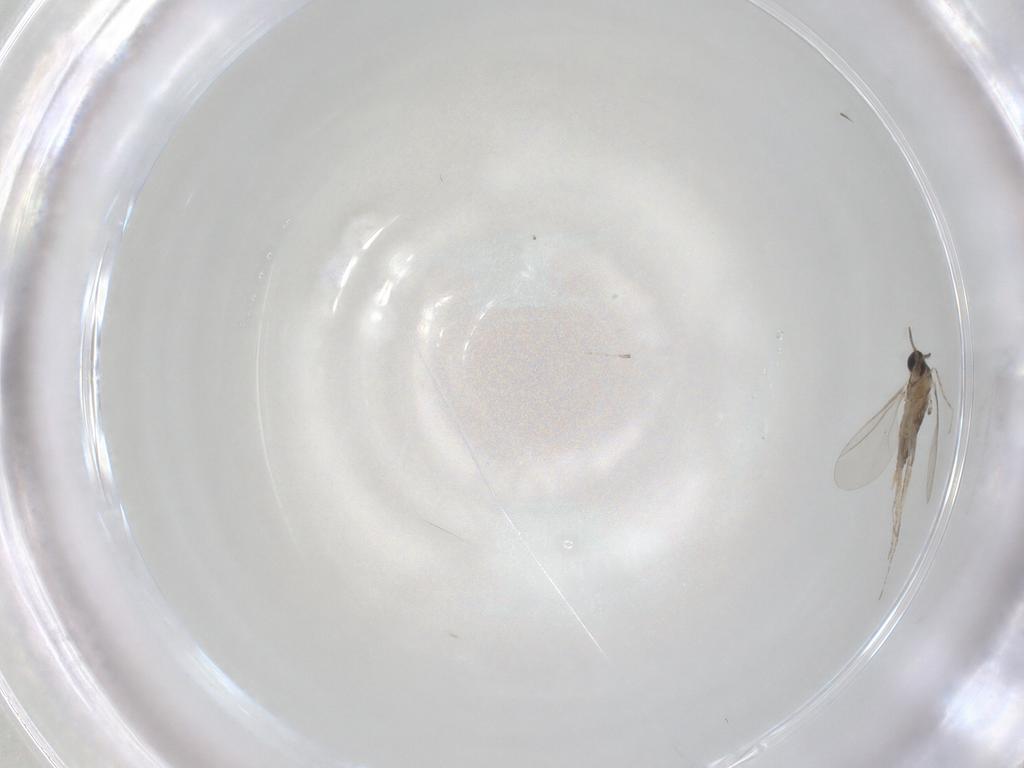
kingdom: Animalia
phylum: Arthropoda
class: Insecta
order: Diptera
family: Cecidomyiidae
